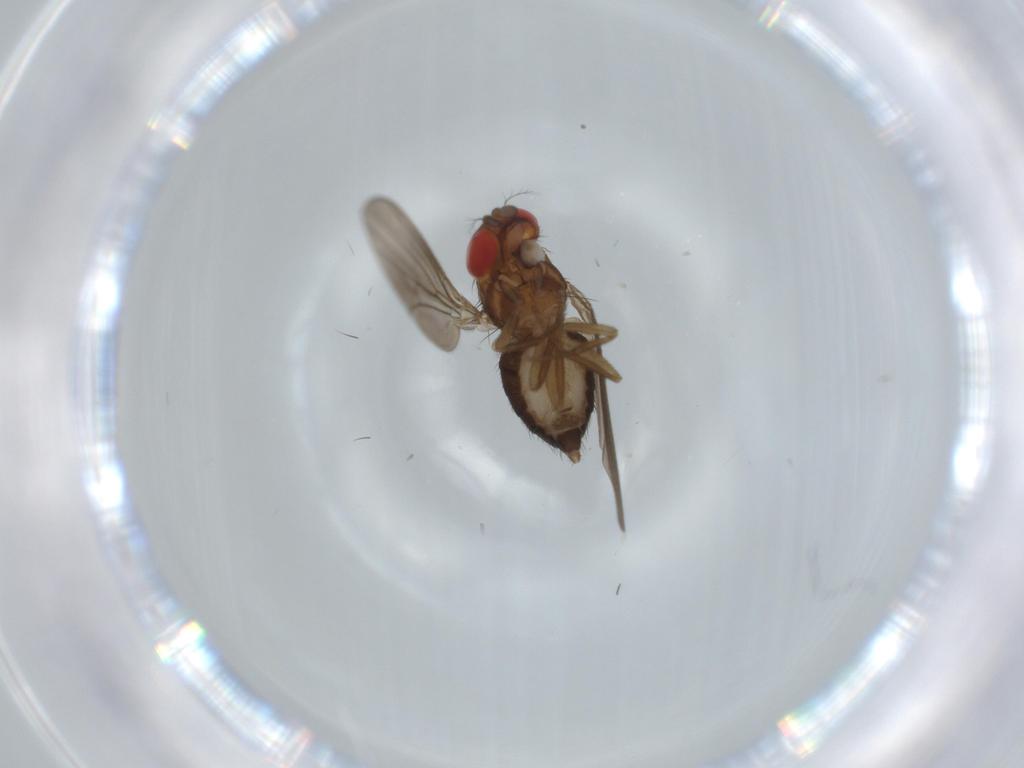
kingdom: Animalia
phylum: Arthropoda
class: Insecta
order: Diptera
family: Drosophilidae
